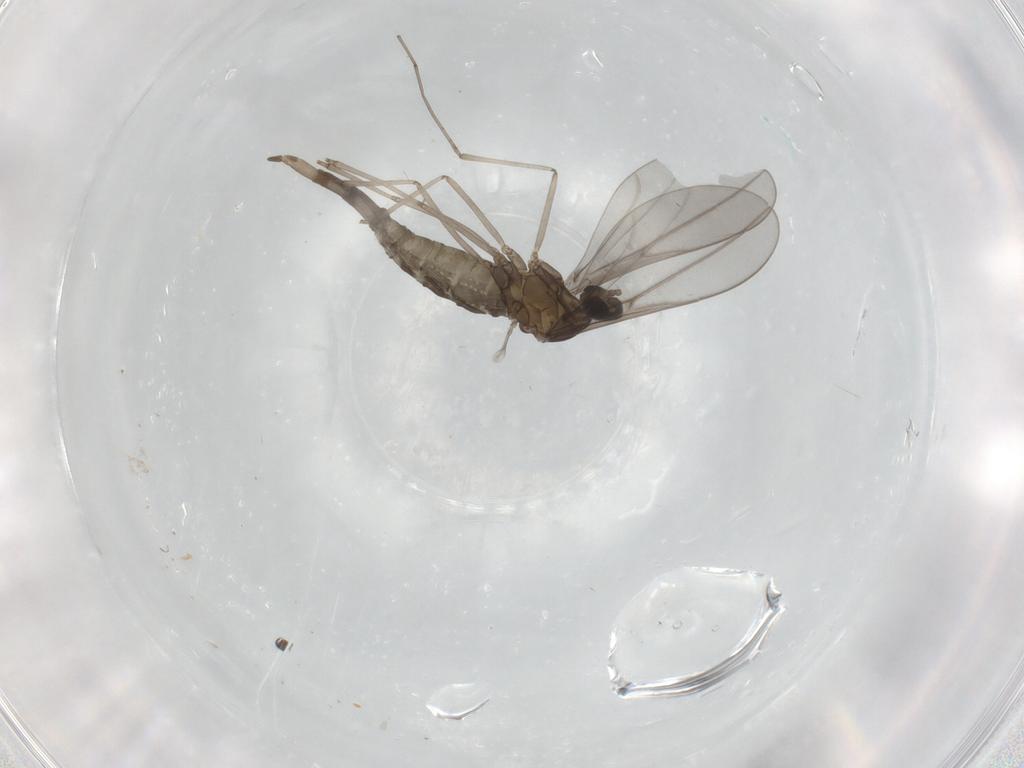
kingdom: Animalia
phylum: Arthropoda
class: Insecta
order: Diptera
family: Cecidomyiidae
